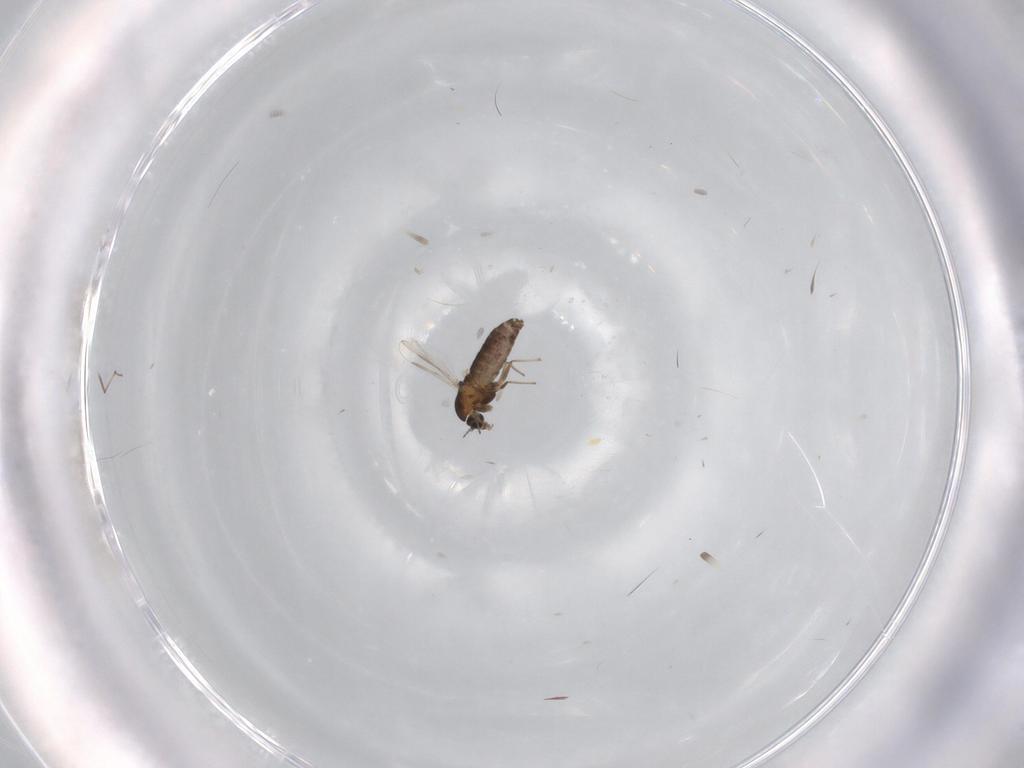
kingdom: Animalia
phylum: Arthropoda
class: Insecta
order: Diptera
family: Chironomidae
